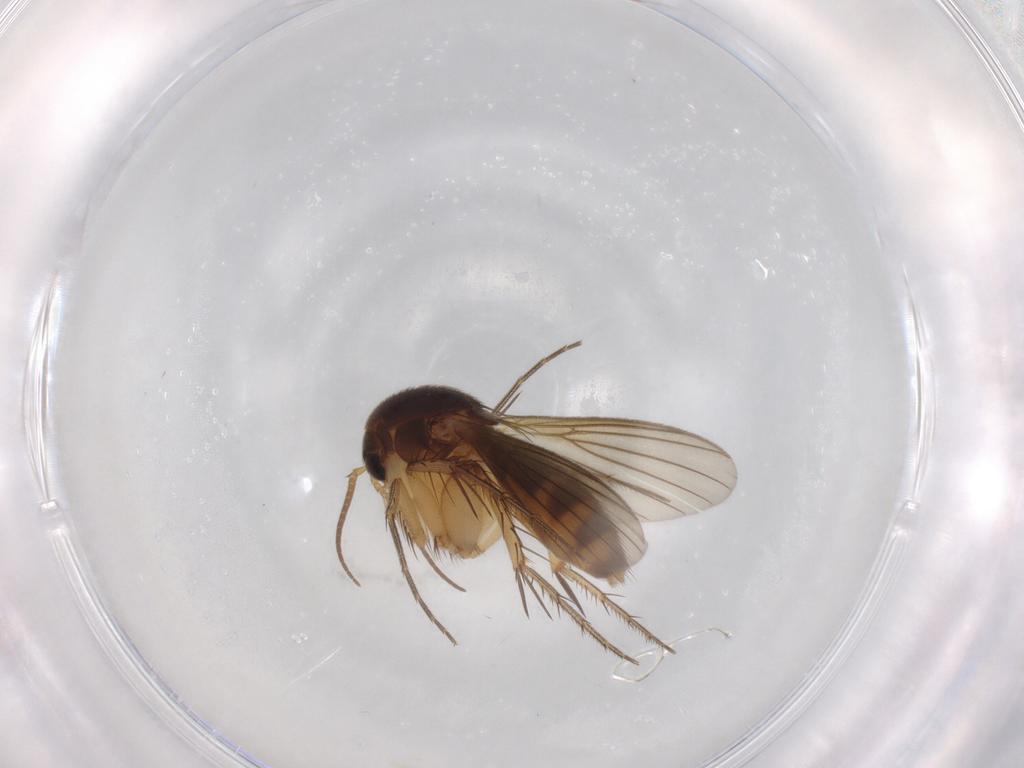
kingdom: Animalia
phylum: Arthropoda
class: Insecta
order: Diptera
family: Mycetophilidae
